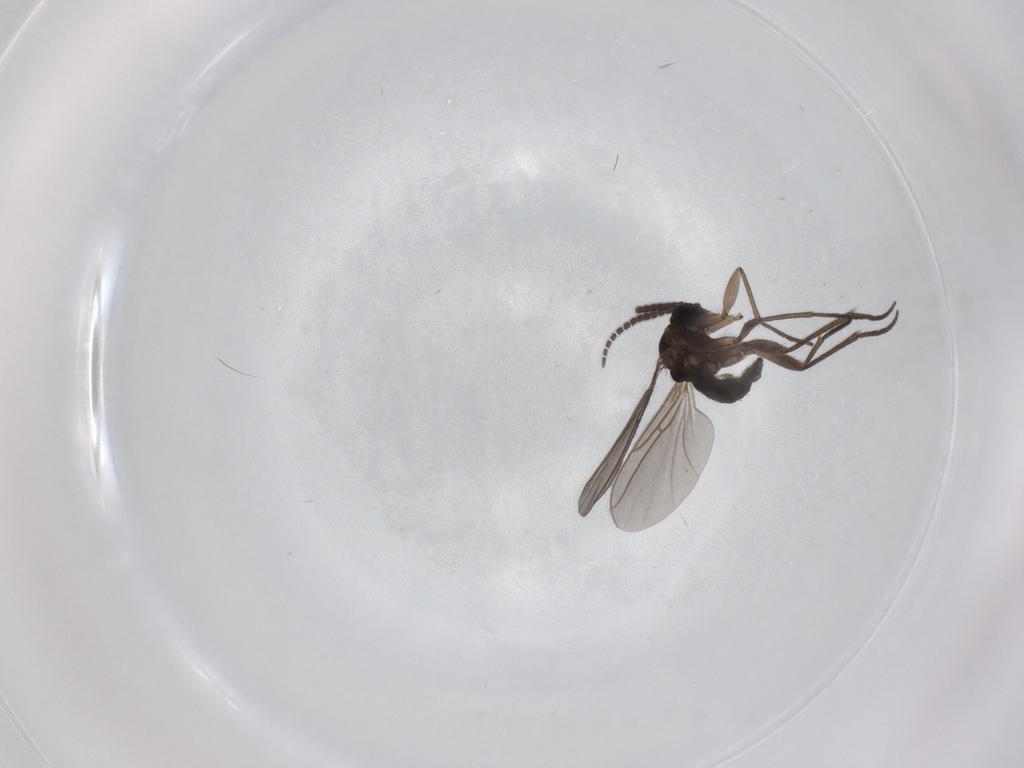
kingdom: Animalia
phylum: Arthropoda
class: Insecta
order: Diptera
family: Sciaridae
